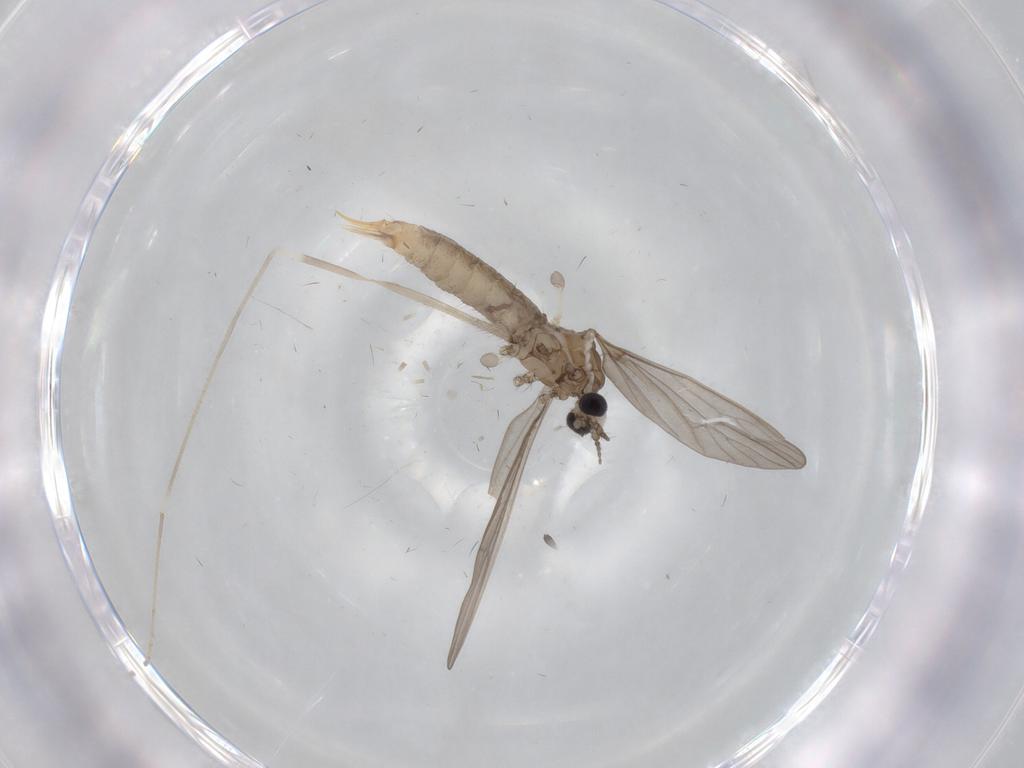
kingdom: Animalia
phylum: Arthropoda
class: Insecta
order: Diptera
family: Limoniidae
